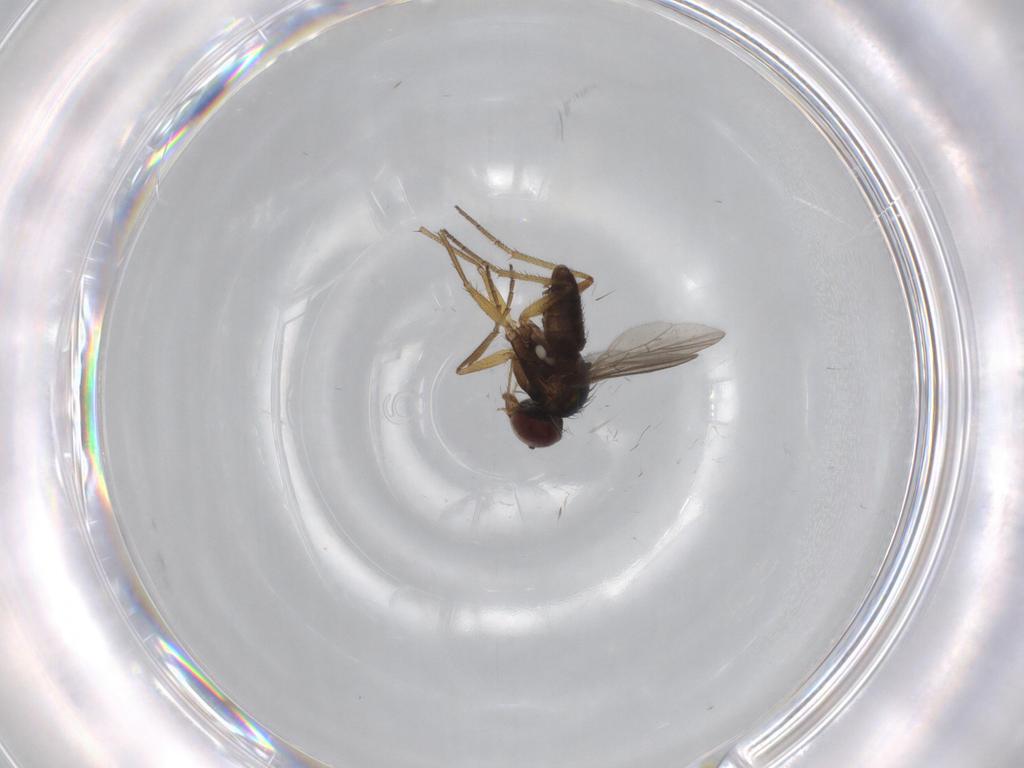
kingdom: Animalia
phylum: Arthropoda
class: Insecta
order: Diptera
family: Dolichopodidae
